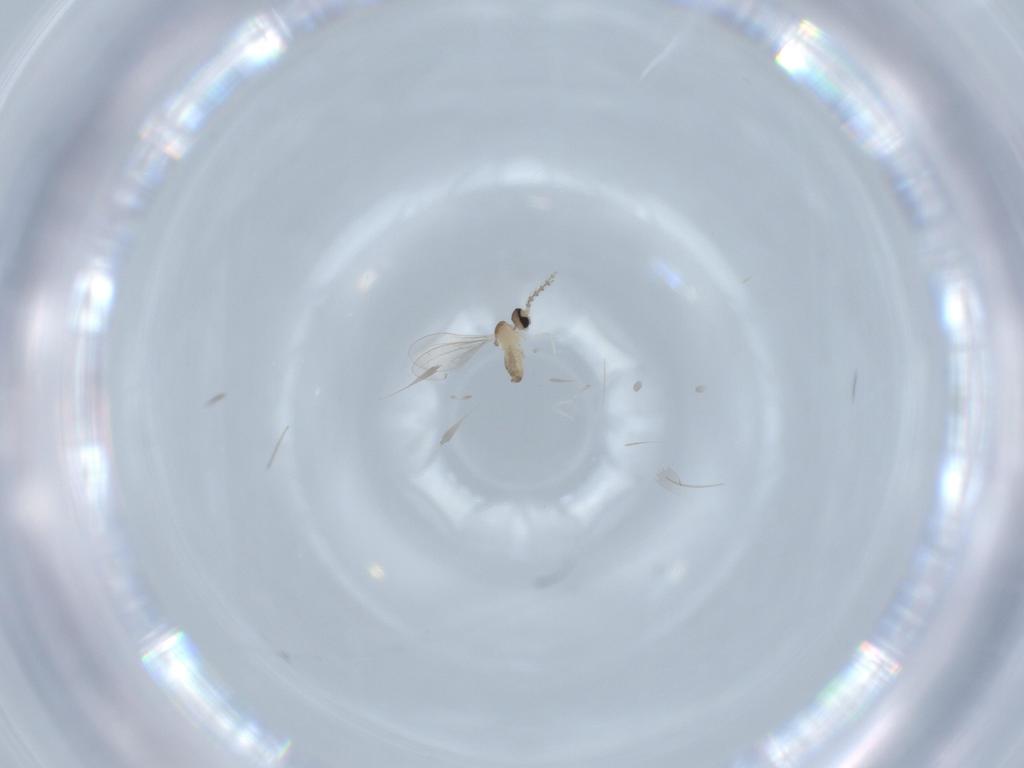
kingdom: Animalia
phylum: Arthropoda
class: Insecta
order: Diptera
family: Cecidomyiidae
